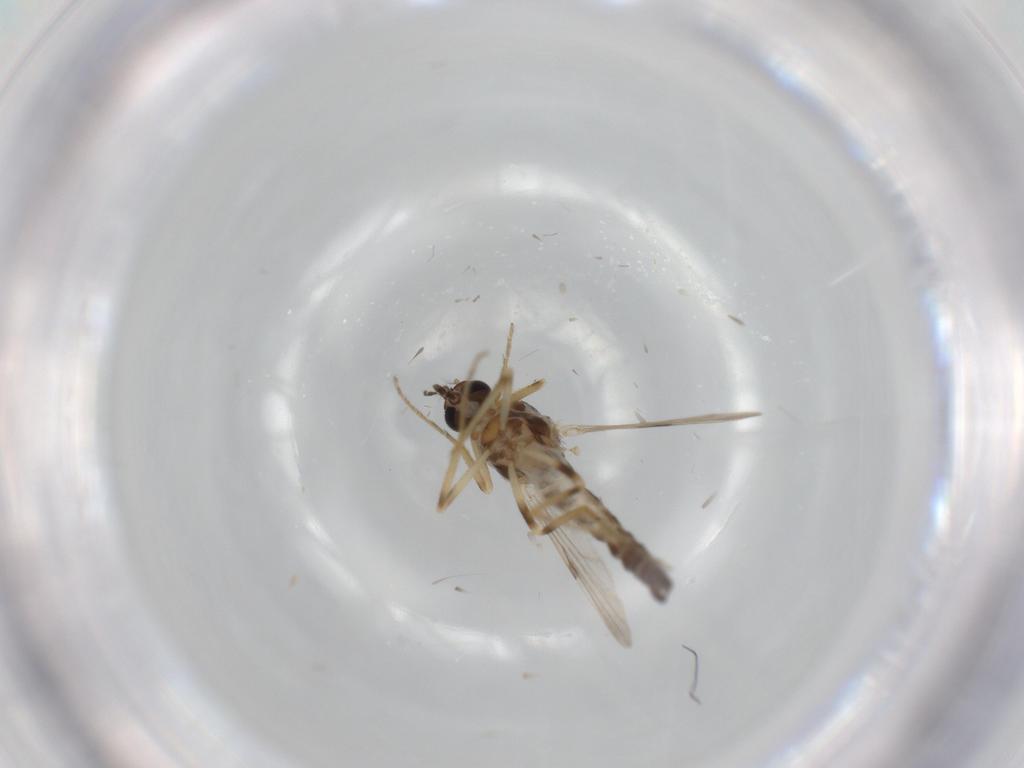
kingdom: Animalia
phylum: Arthropoda
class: Insecta
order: Diptera
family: Ceratopogonidae
